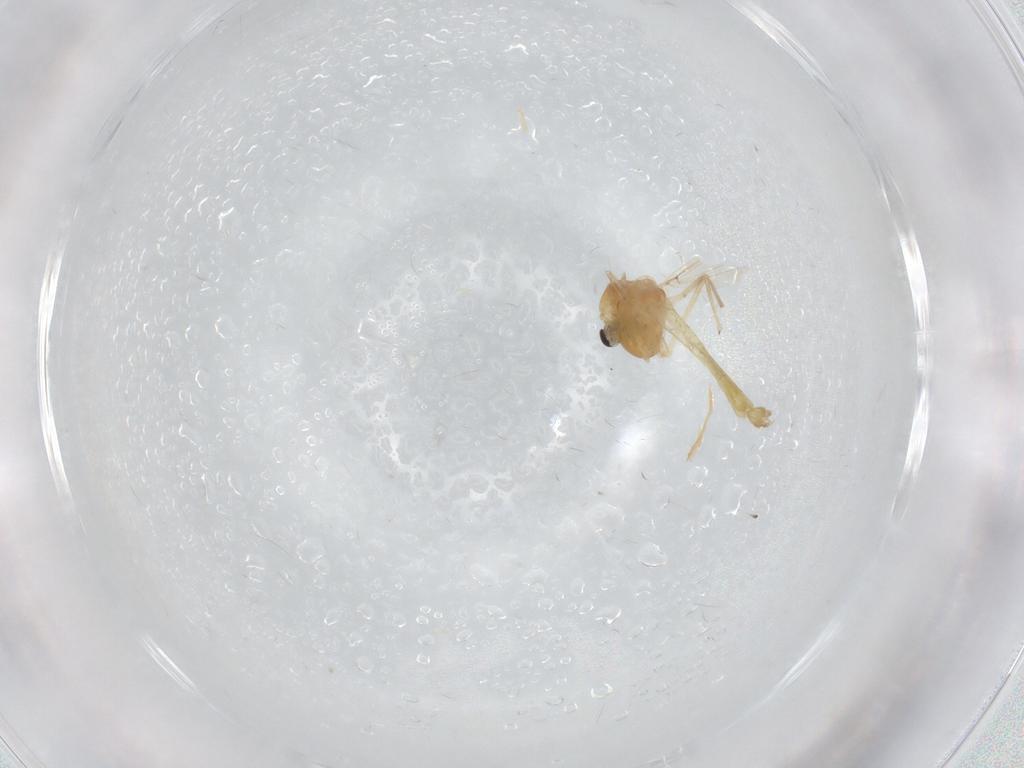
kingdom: Animalia
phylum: Arthropoda
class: Insecta
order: Diptera
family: Chironomidae
